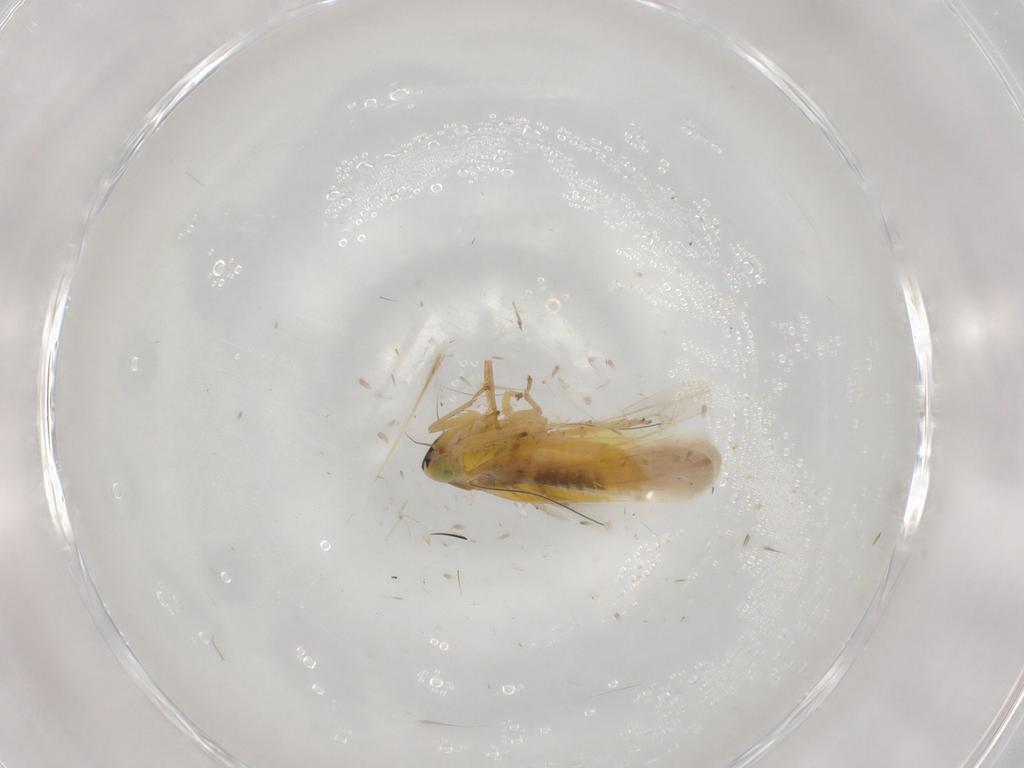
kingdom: Animalia
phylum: Arthropoda
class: Insecta
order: Hemiptera
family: Cicadellidae
